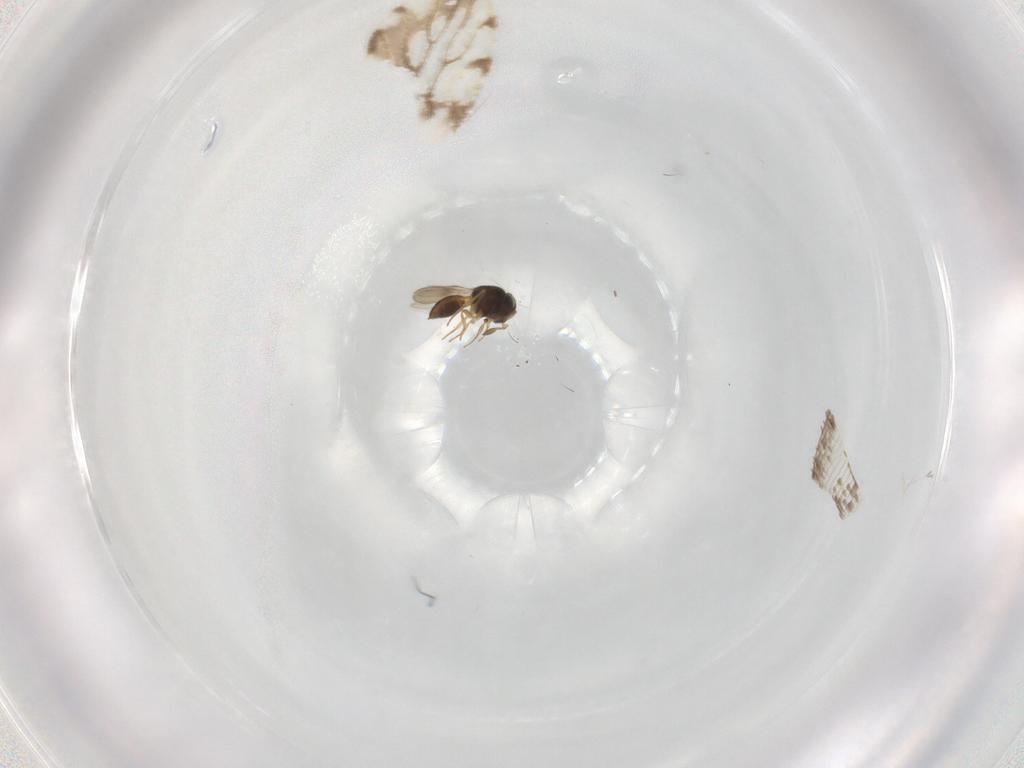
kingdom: Animalia
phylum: Arthropoda
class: Insecta
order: Hymenoptera
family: Scelionidae
